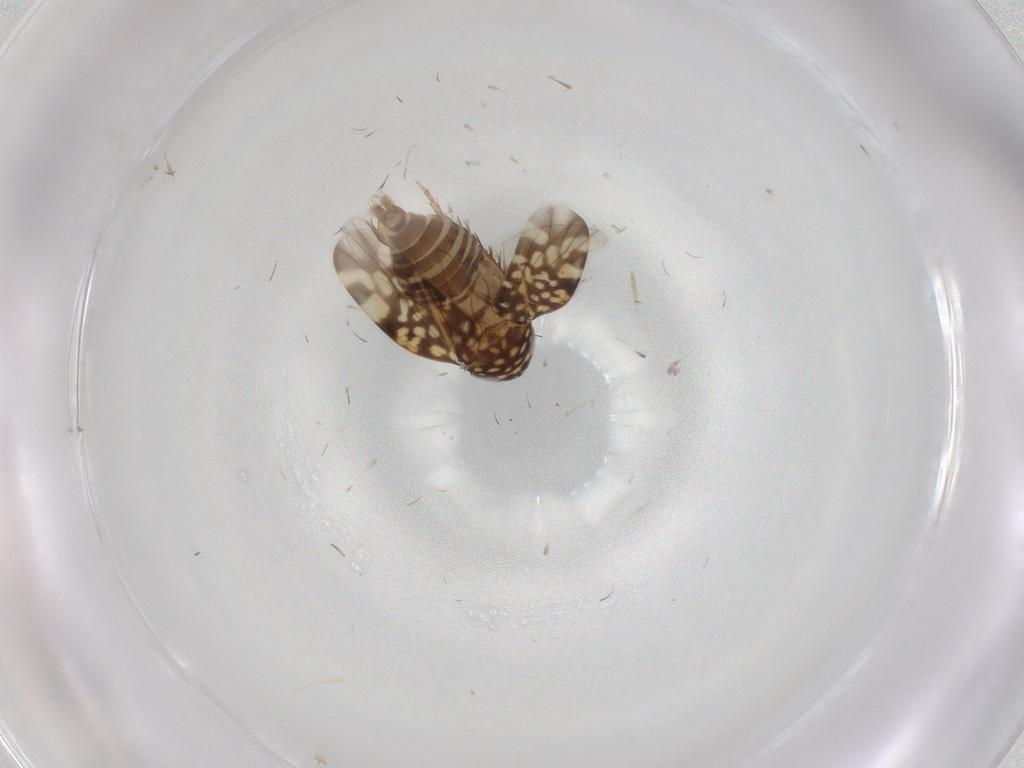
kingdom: Animalia
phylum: Arthropoda
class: Insecta
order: Hemiptera
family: Cicadellidae
